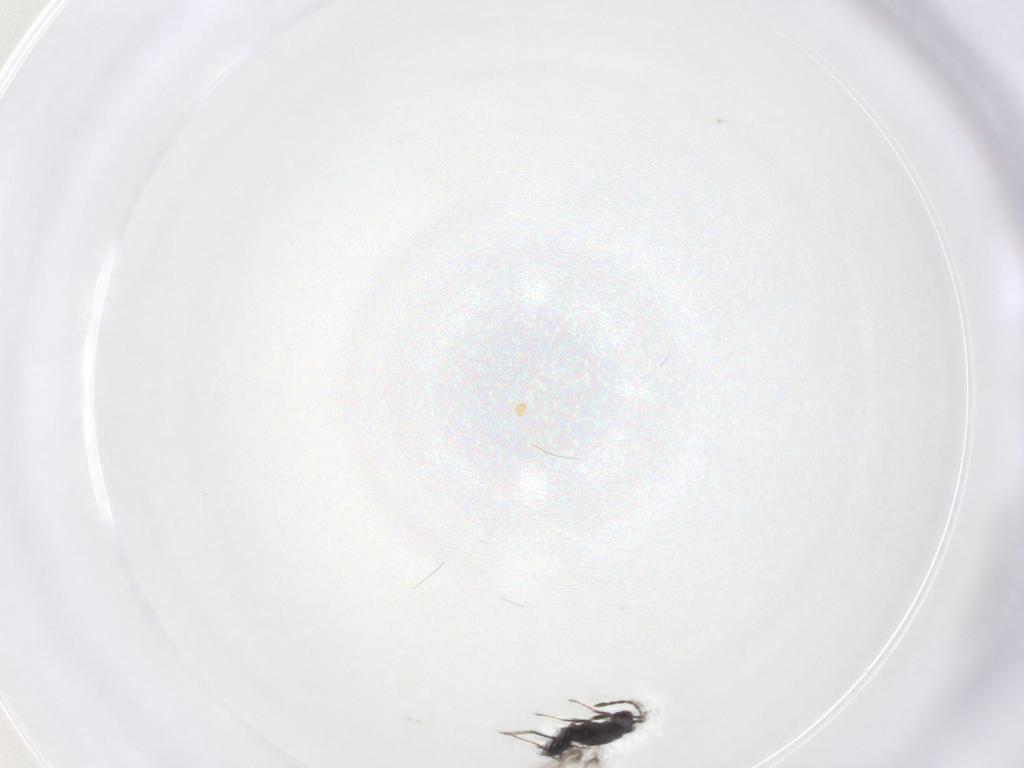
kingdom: Animalia
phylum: Arthropoda
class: Insecta
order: Hymenoptera
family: Mymaridae
